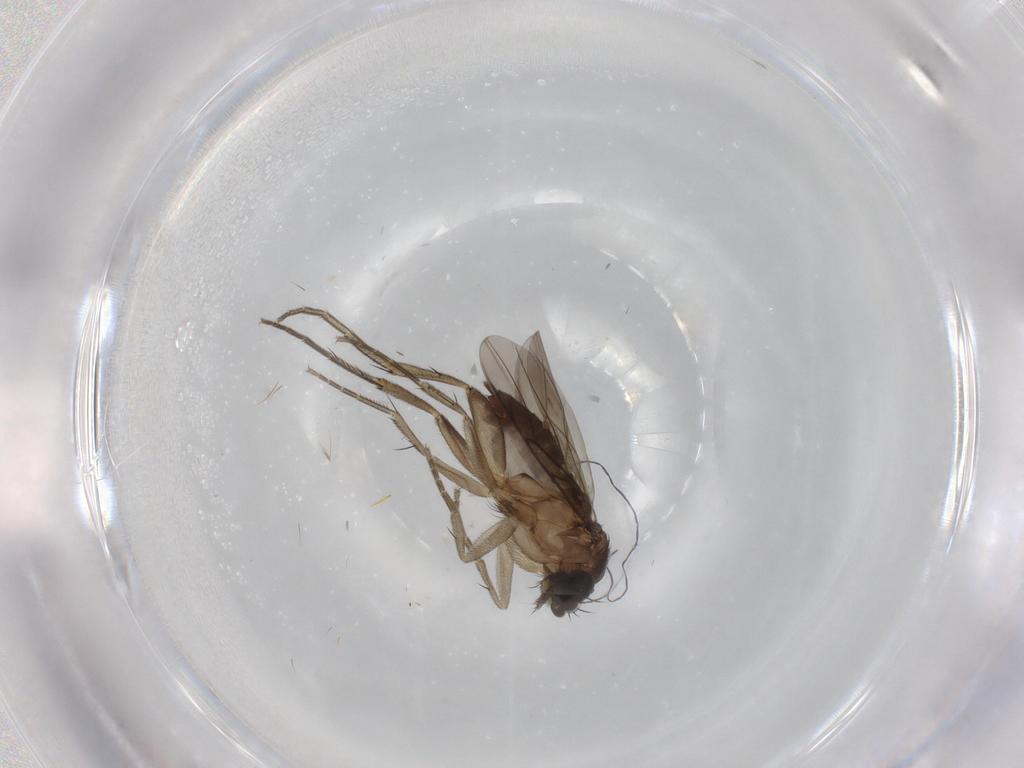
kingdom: Animalia
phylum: Arthropoda
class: Insecta
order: Diptera
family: Phoridae
